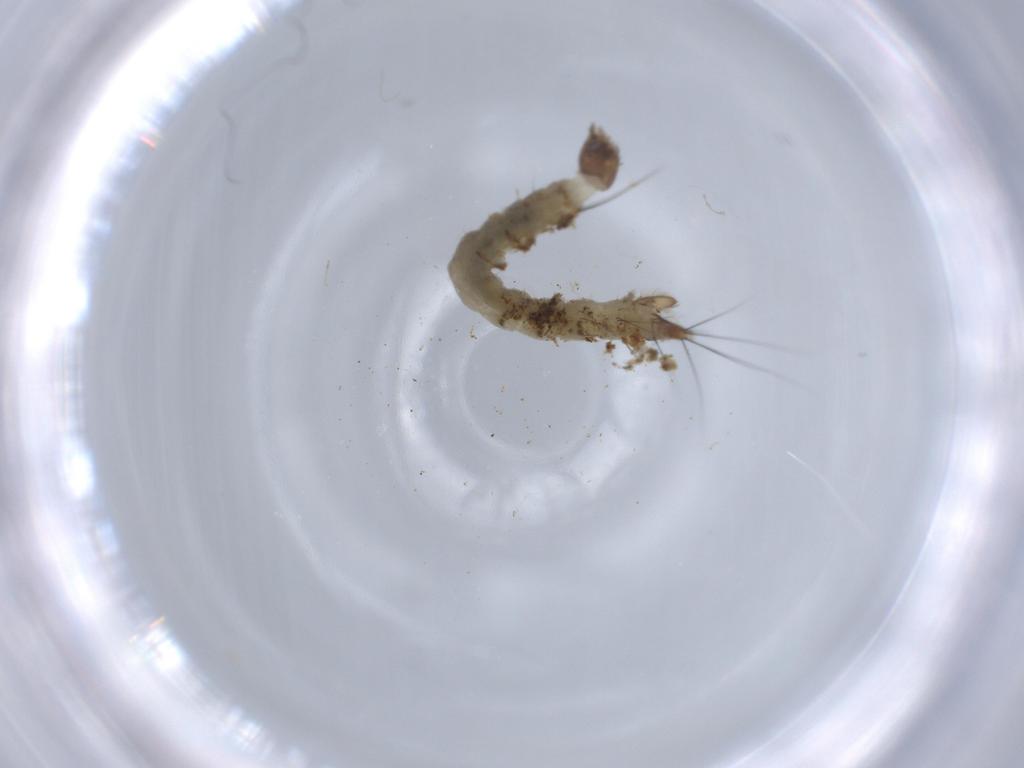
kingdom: Animalia
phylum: Arthropoda
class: Insecta
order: Diptera
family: Dixidae
